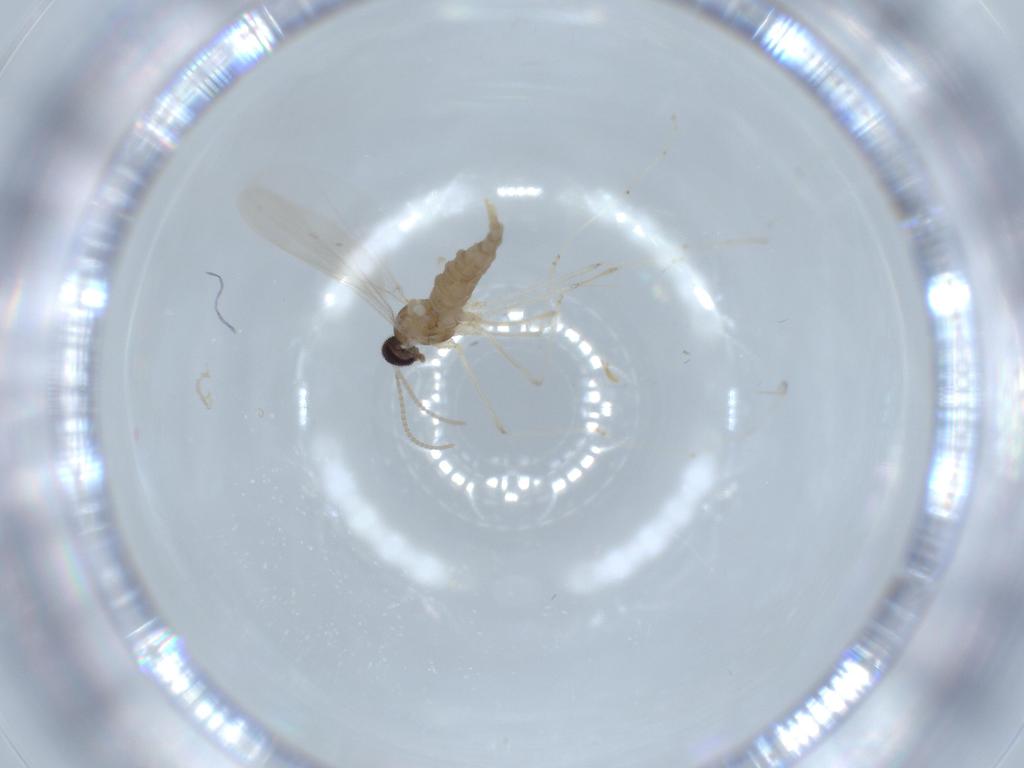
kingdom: Animalia
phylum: Arthropoda
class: Insecta
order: Diptera
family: Cecidomyiidae
